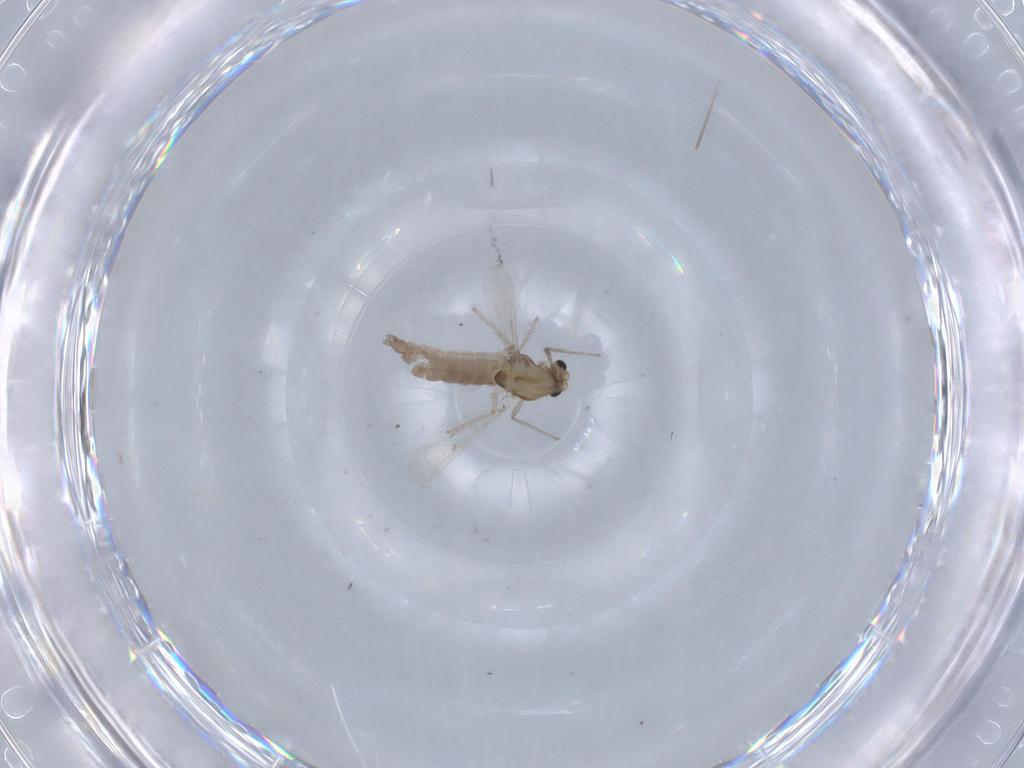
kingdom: Animalia
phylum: Arthropoda
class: Insecta
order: Diptera
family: Chironomidae
